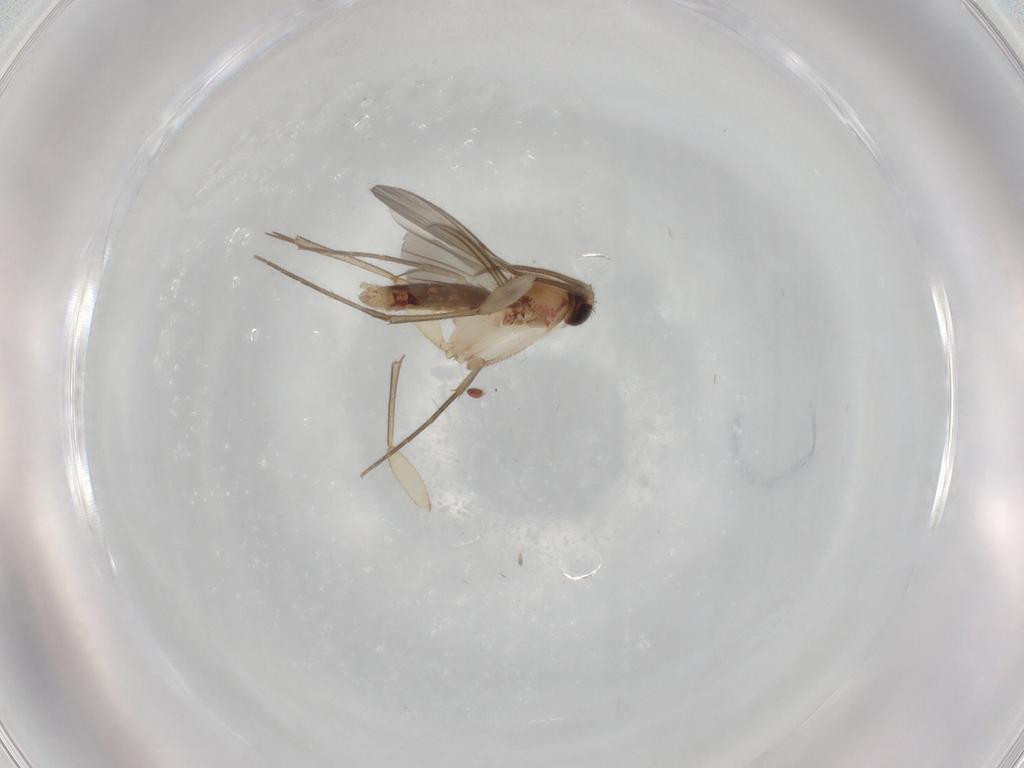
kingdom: Animalia
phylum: Arthropoda
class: Insecta
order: Diptera
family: Mycetophilidae
